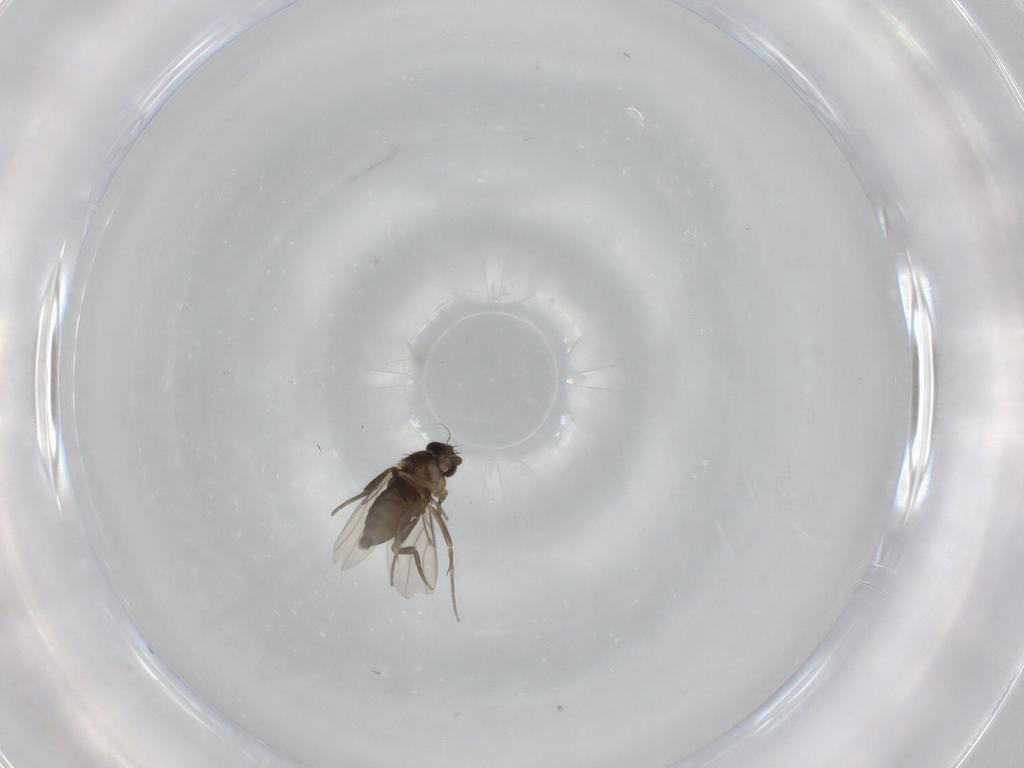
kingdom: Animalia
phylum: Arthropoda
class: Insecta
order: Diptera
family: Phoridae
